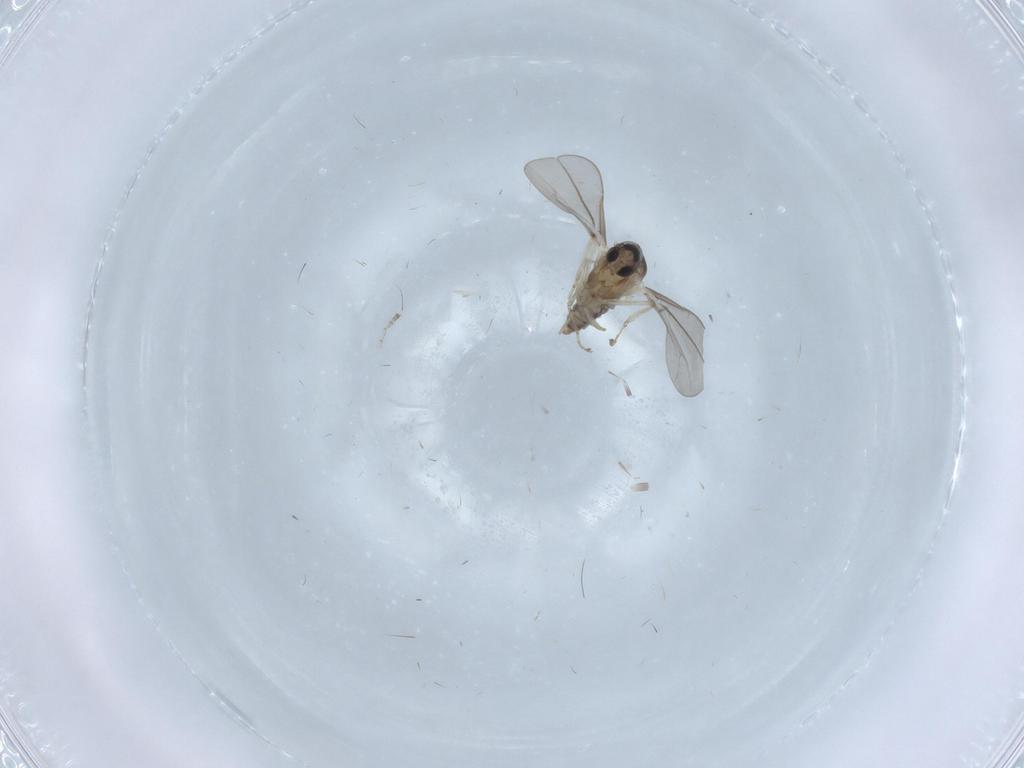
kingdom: Animalia
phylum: Arthropoda
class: Insecta
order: Diptera
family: Cecidomyiidae
